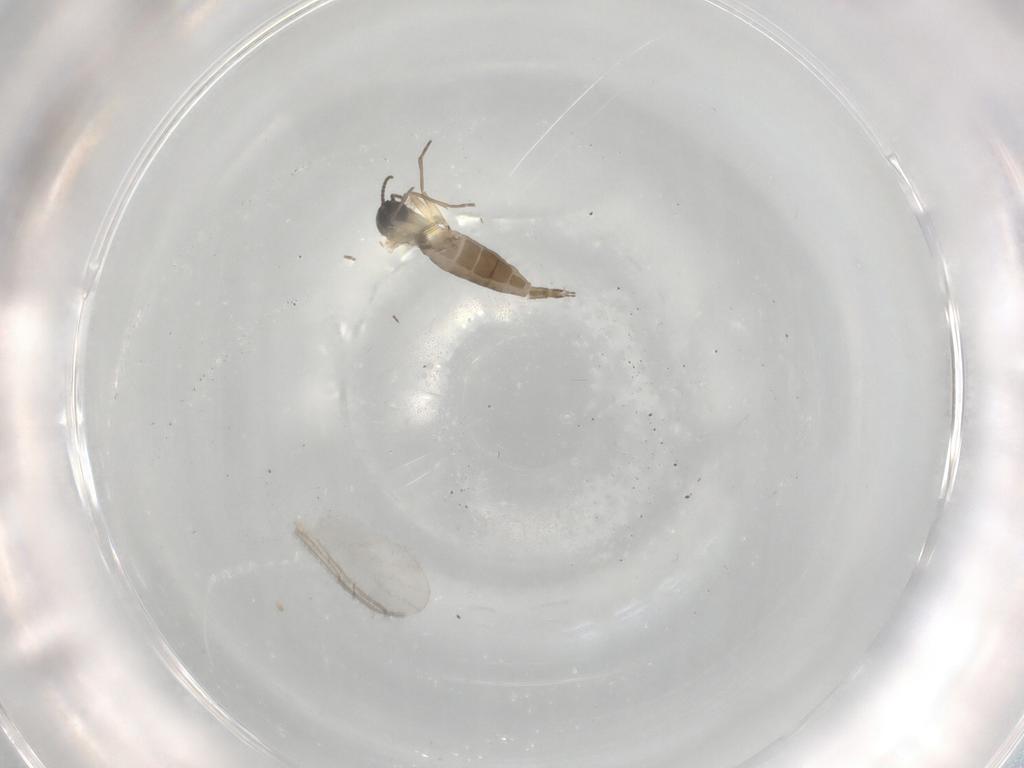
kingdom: Animalia
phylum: Arthropoda
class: Insecta
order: Diptera
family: Sciaridae
